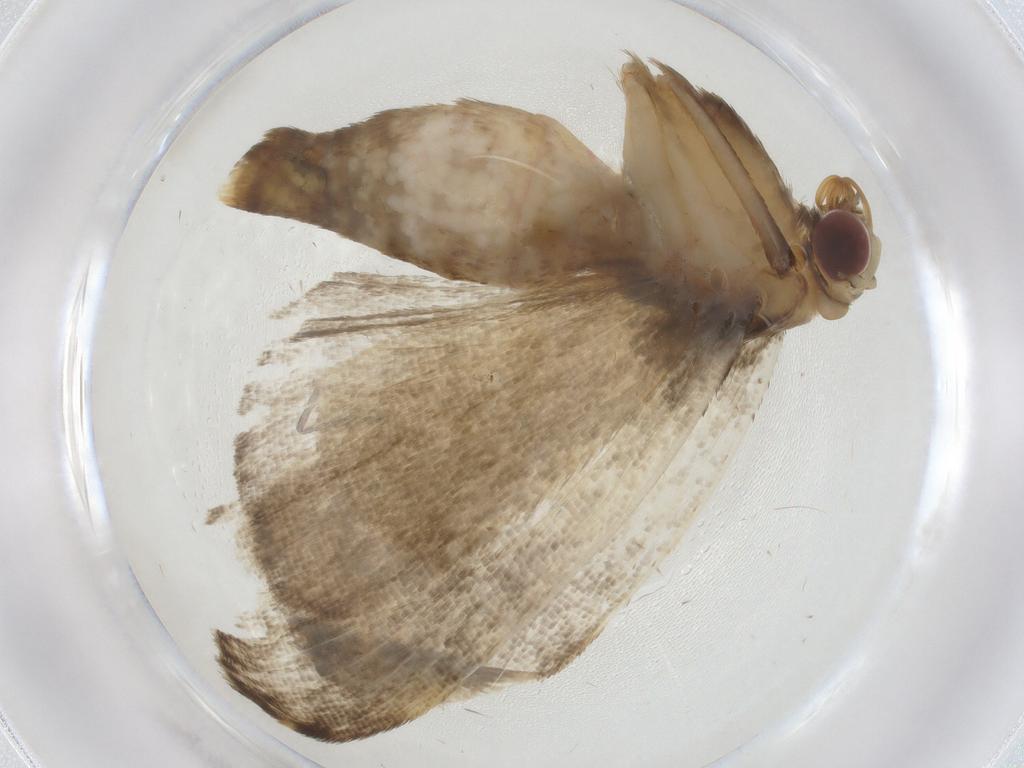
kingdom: Animalia
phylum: Arthropoda
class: Insecta
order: Lepidoptera
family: Erebidae
